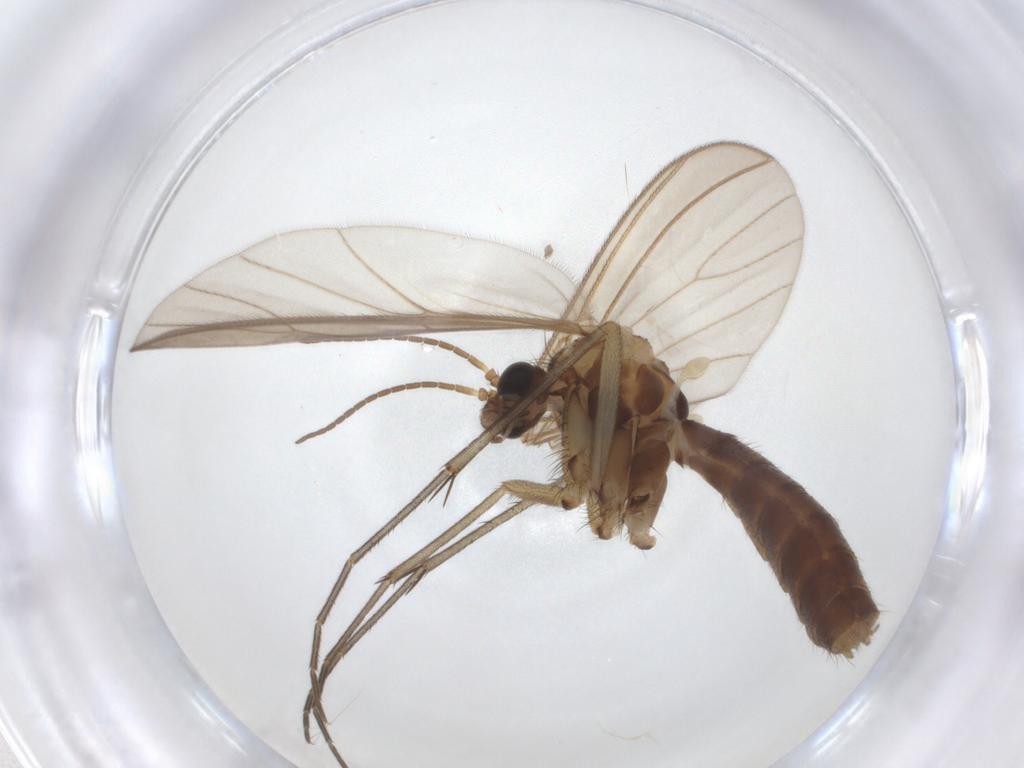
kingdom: Animalia
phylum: Arthropoda
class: Insecta
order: Diptera
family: Mycetophilidae
